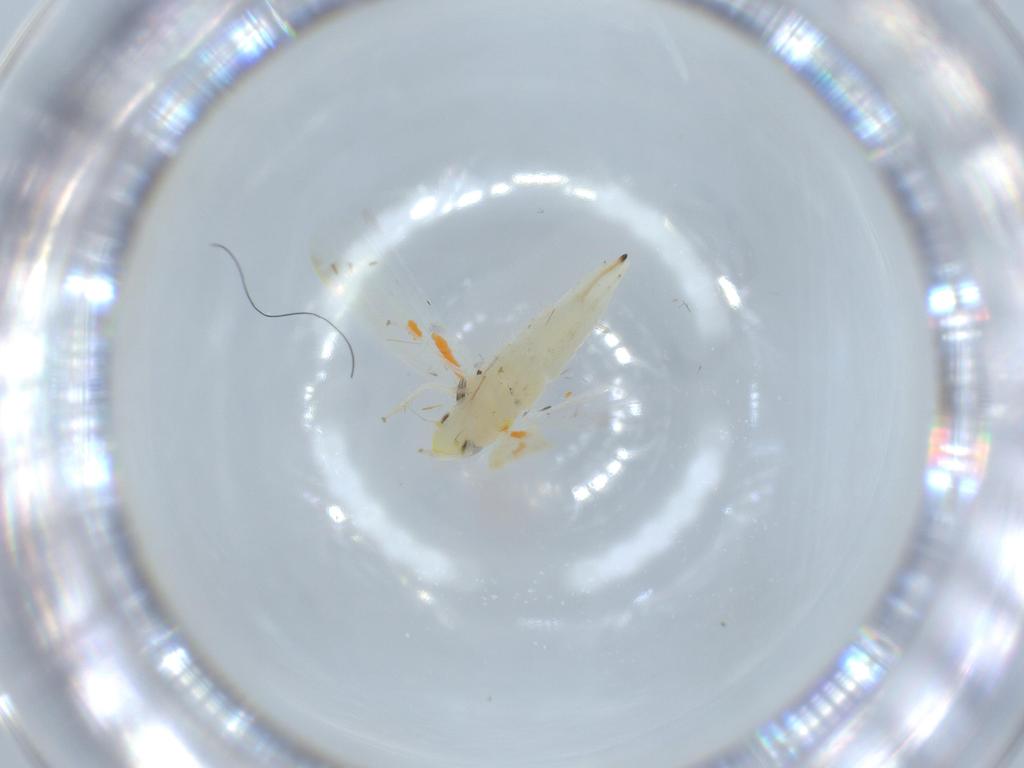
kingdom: Animalia
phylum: Arthropoda
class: Insecta
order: Hemiptera
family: Cicadellidae
